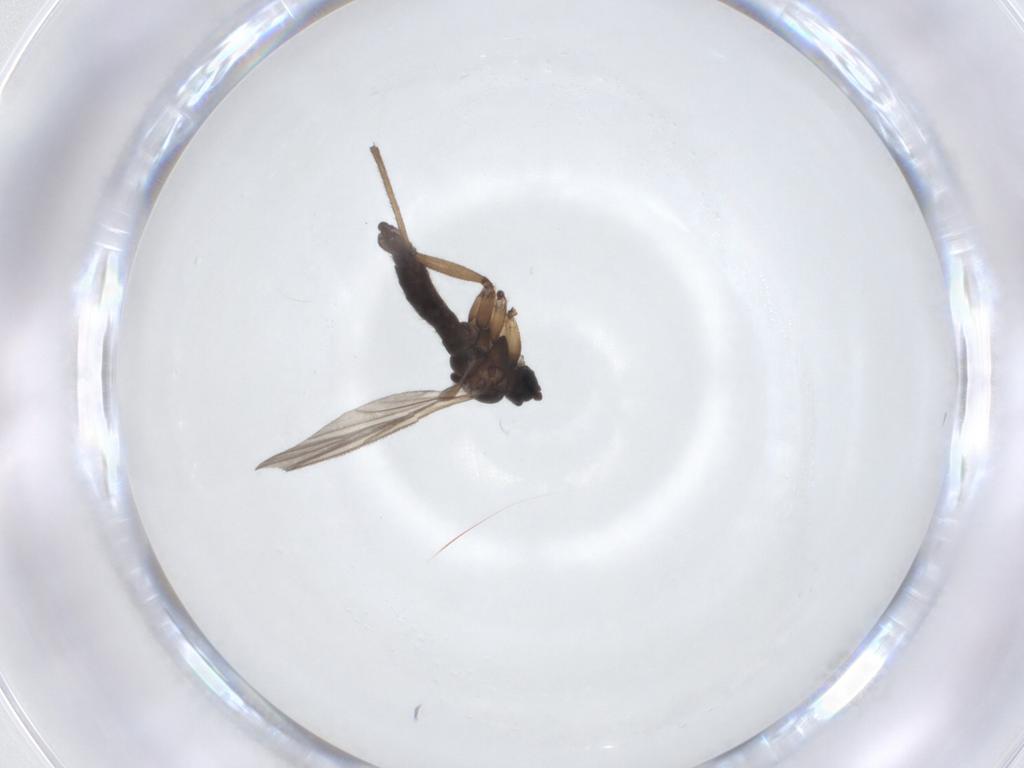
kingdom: Animalia
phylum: Arthropoda
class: Insecta
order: Diptera
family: Sciaridae
